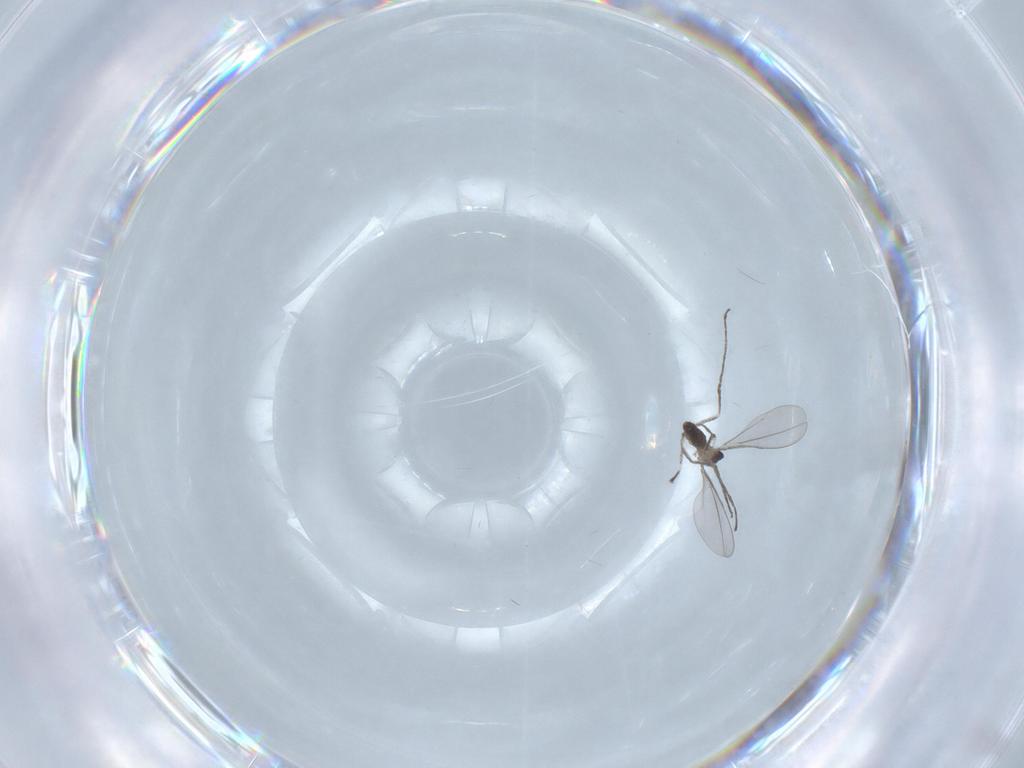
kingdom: Animalia
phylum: Arthropoda
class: Insecta
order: Diptera
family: Cecidomyiidae
